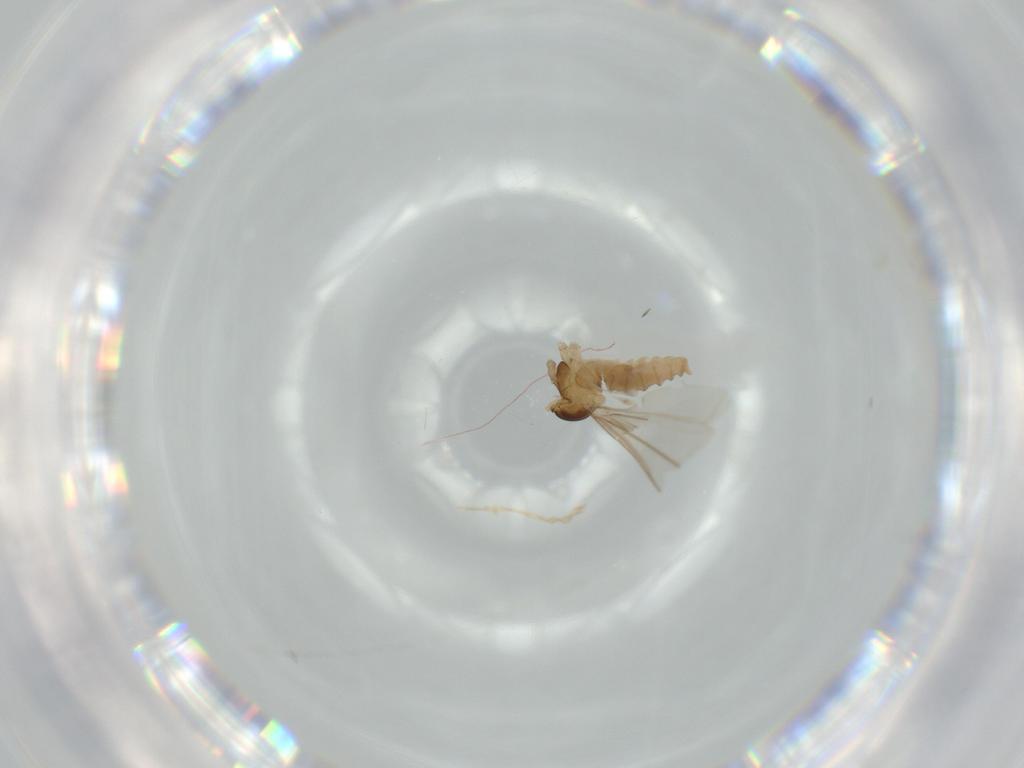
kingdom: Animalia
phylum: Arthropoda
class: Insecta
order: Diptera
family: Cecidomyiidae
